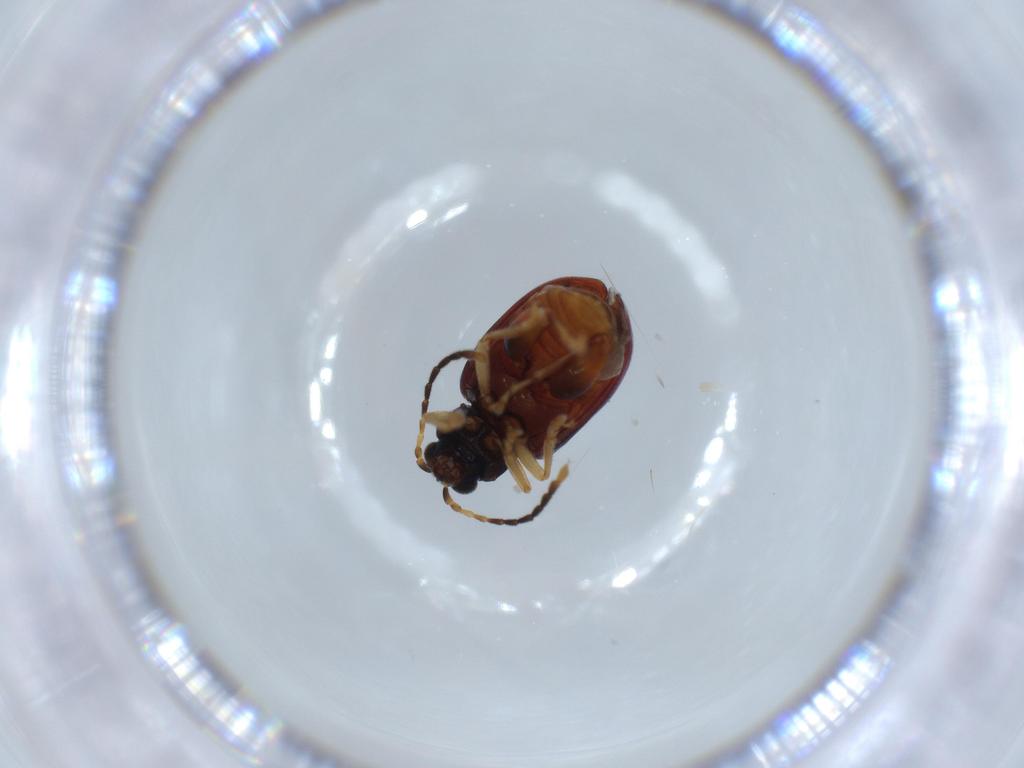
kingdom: Animalia
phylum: Arthropoda
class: Insecta
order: Coleoptera
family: Chrysomelidae
